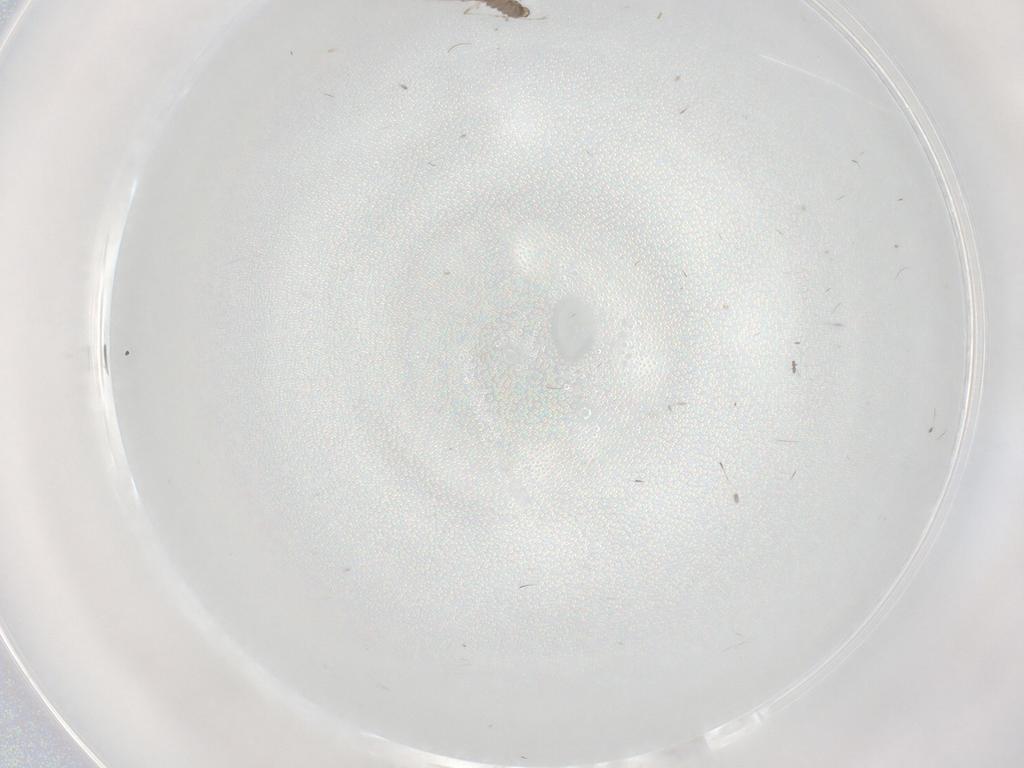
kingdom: Animalia
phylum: Arthropoda
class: Insecta
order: Diptera
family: Cecidomyiidae
